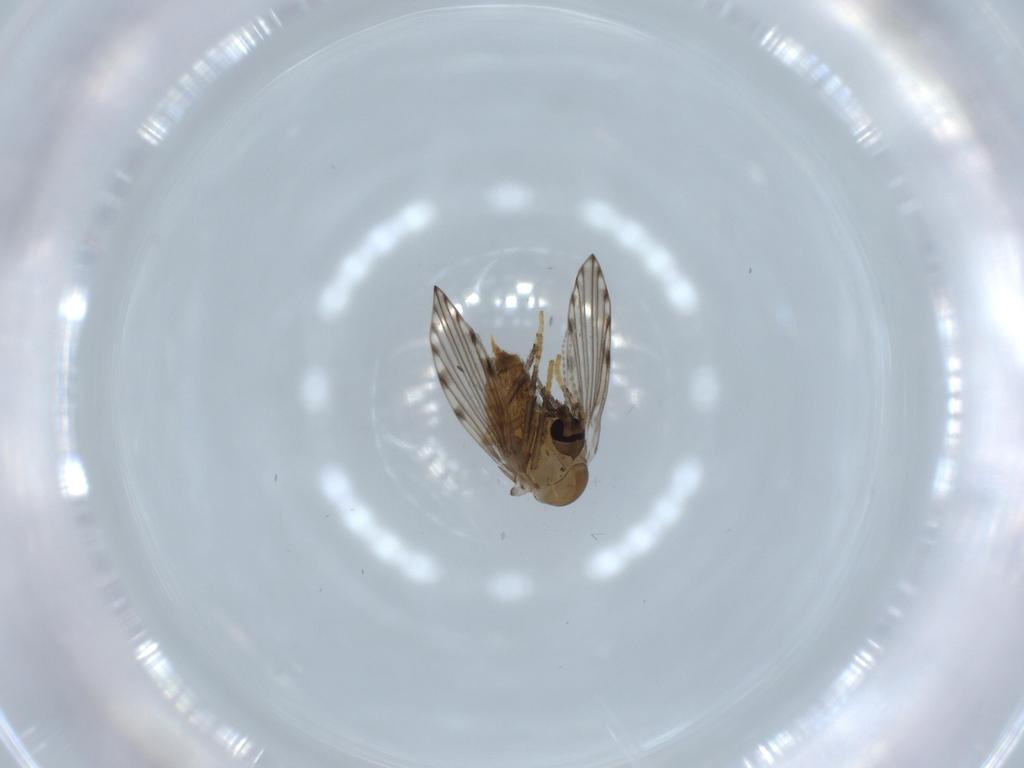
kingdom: Animalia
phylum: Arthropoda
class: Insecta
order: Diptera
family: Psychodidae
